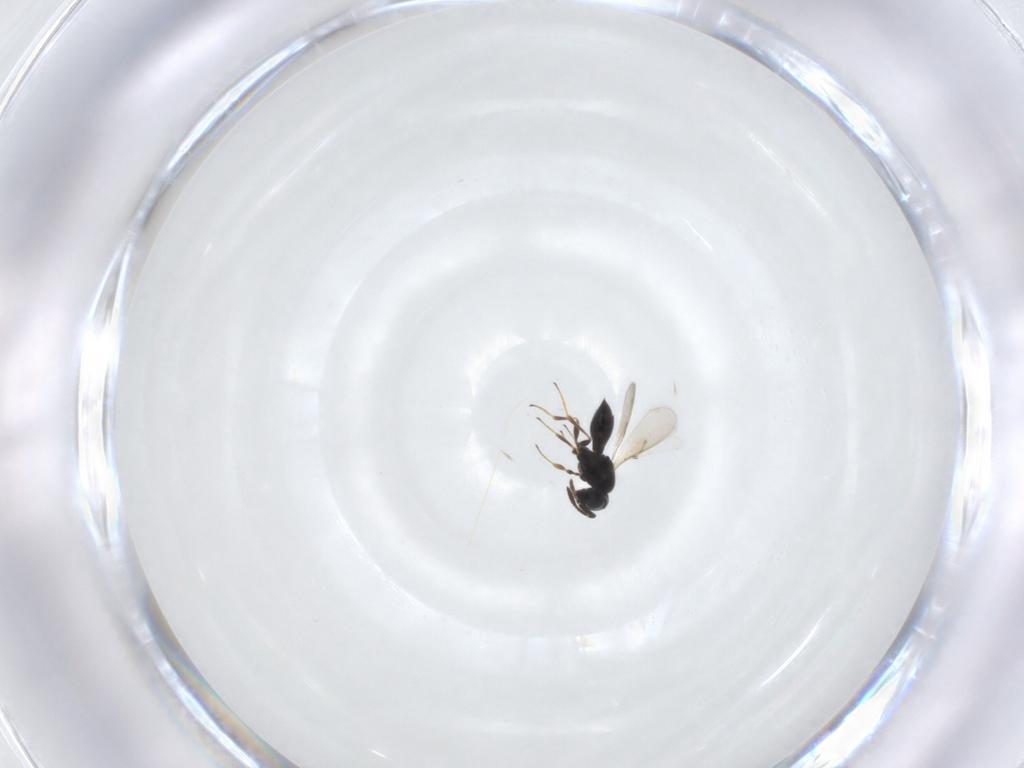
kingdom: Animalia
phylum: Arthropoda
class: Insecta
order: Hymenoptera
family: Scelionidae
